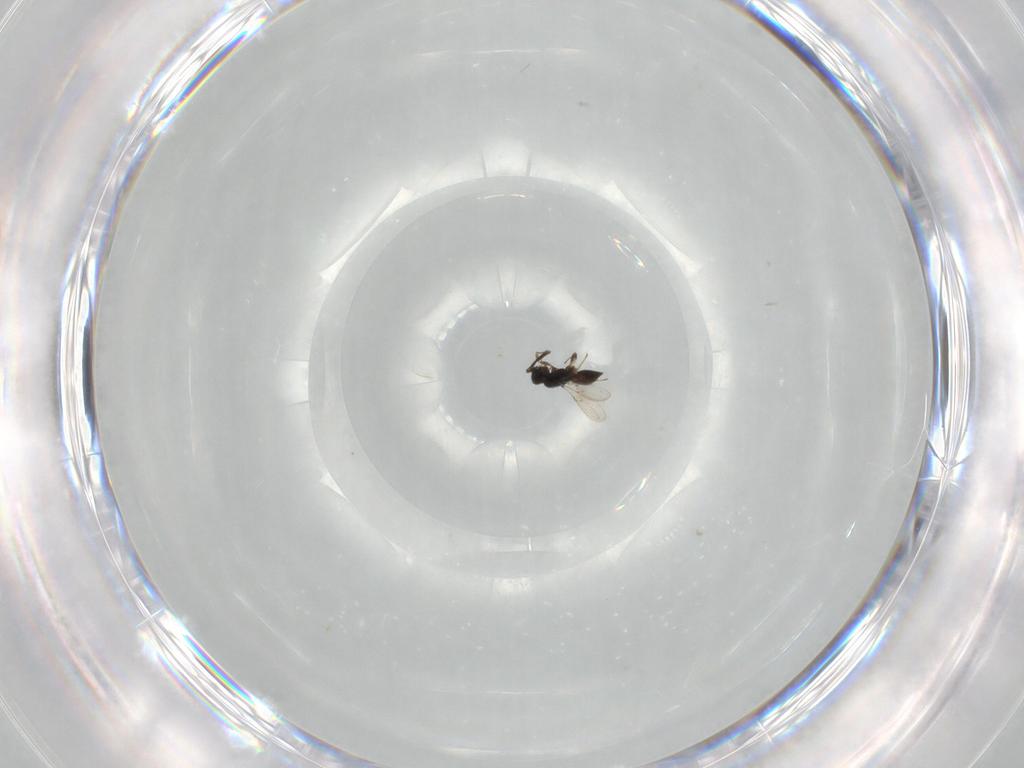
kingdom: Animalia
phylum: Arthropoda
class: Insecta
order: Hymenoptera
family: Scelionidae
